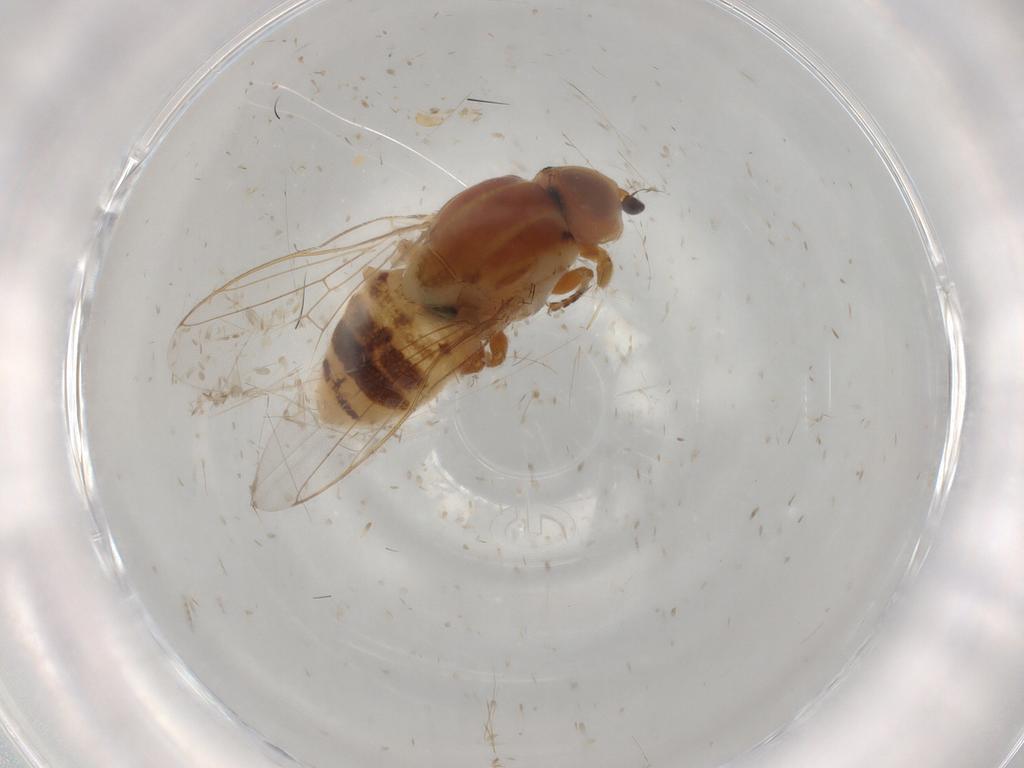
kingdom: Animalia
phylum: Arthropoda
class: Insecta
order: Diptera
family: Chloropidae
